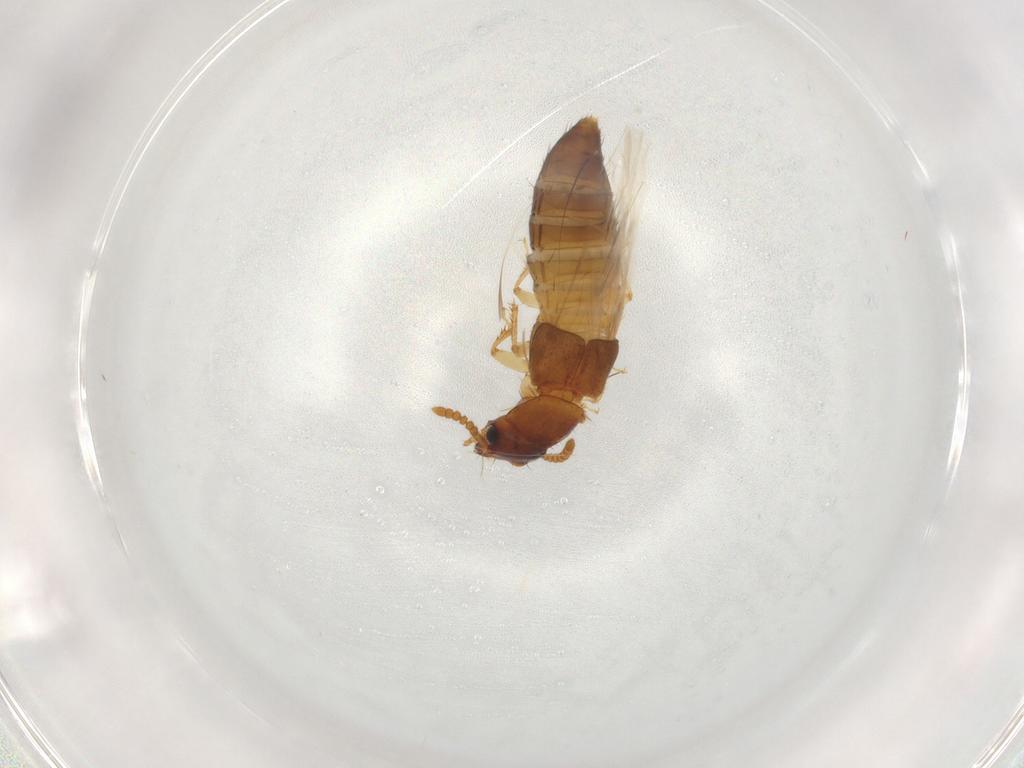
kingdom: Animalia
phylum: Arthropoda
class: Insecta
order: Coleoptera
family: Staphylinidae
